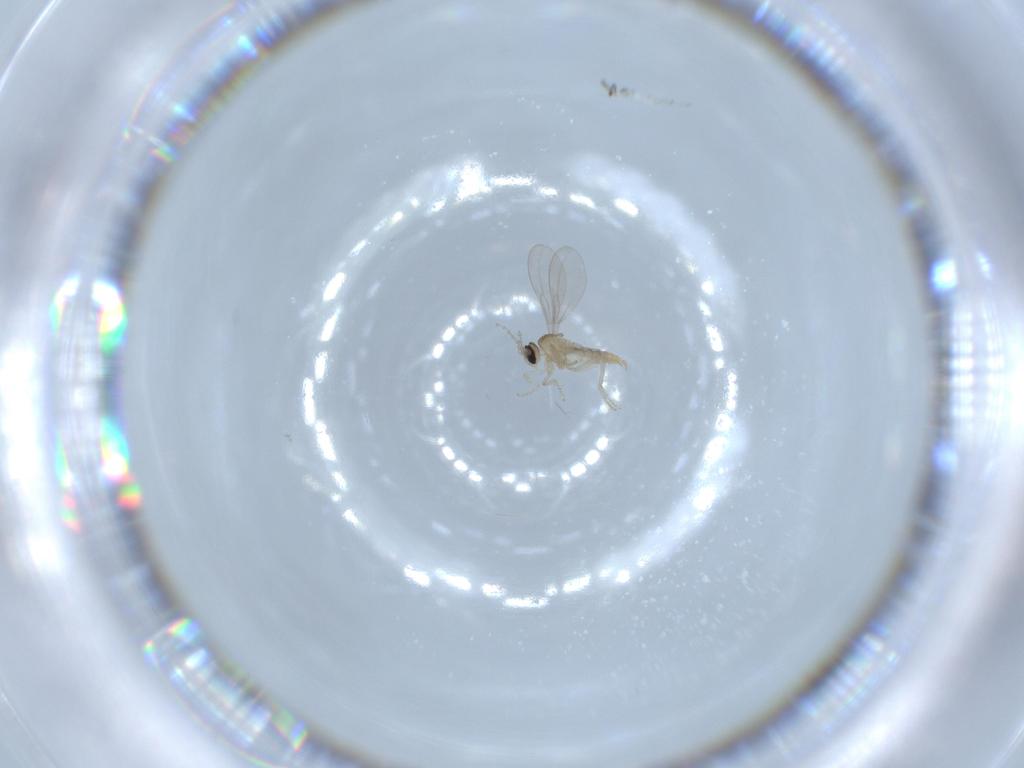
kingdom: Animalia
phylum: Arthropoda
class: Insecta
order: Diptera
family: Cecidomyiidae
